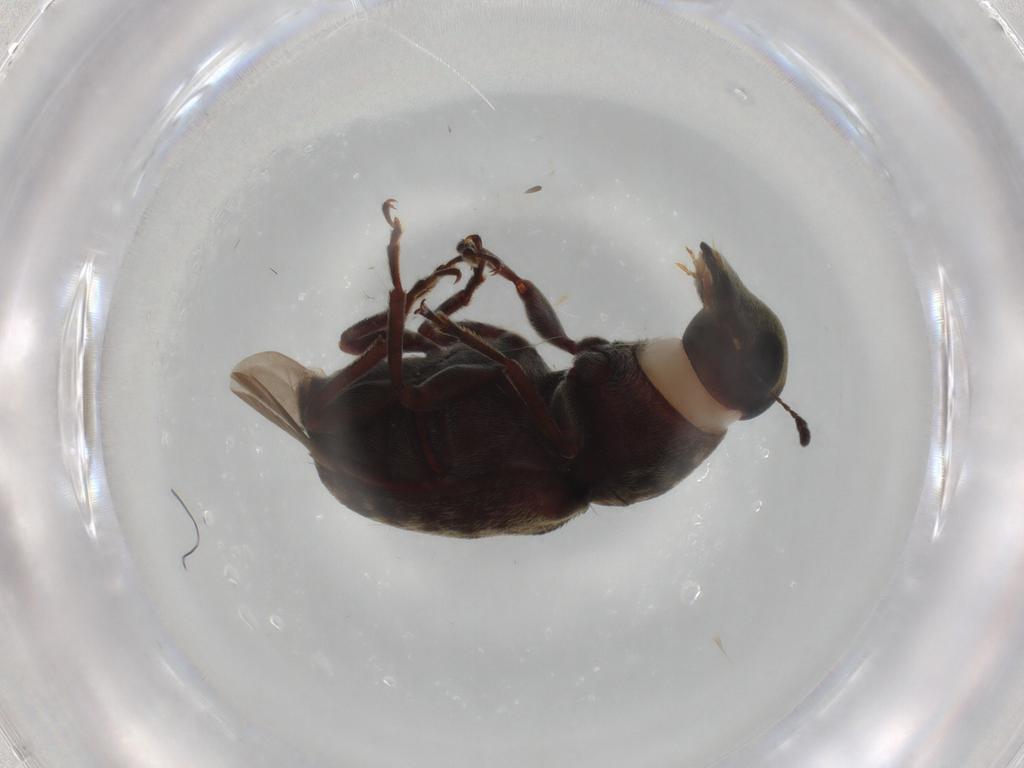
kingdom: Animalia
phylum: Arthropoda
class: Insecta
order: Coleoptera
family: Anthribidae
